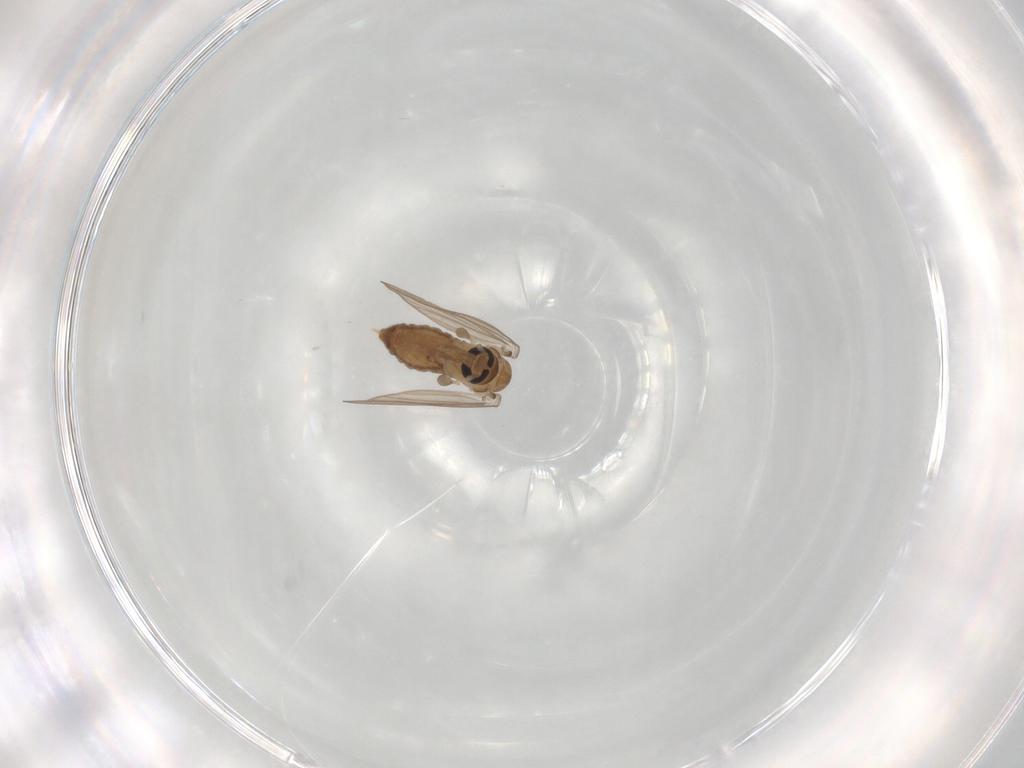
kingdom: Animalia
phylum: Arthropoda
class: Insecta
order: Diptera
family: Psychodidae
